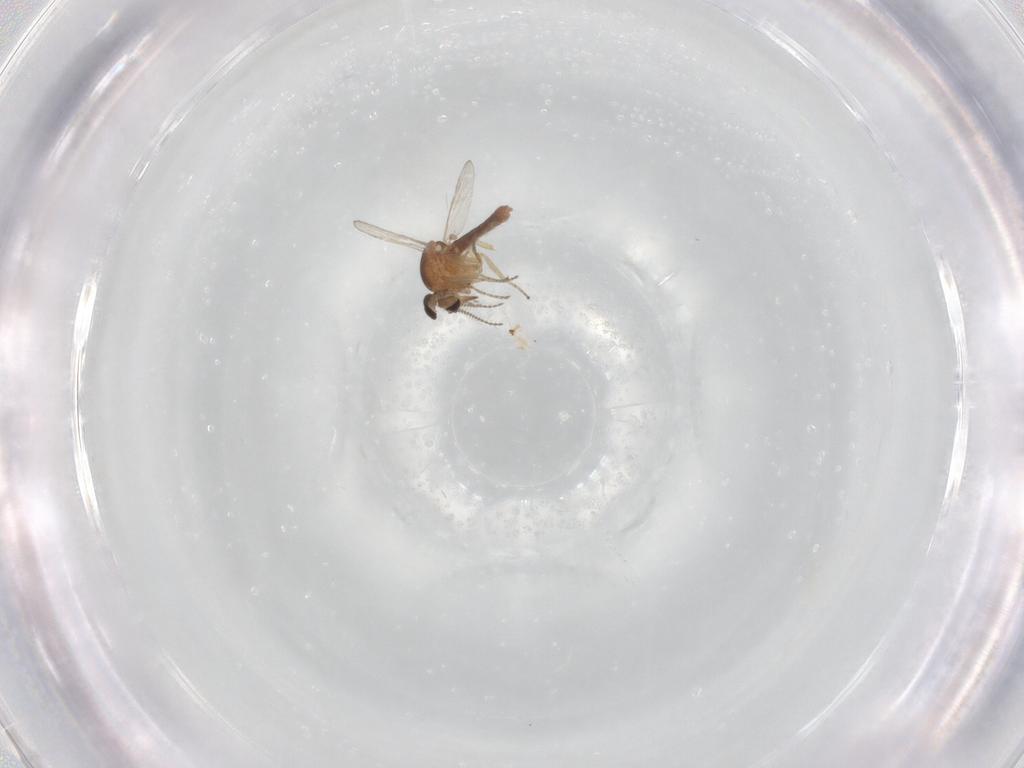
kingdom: Animalia
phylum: Arthropoda
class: Insecta
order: Diptera
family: Ceratopogonidae
